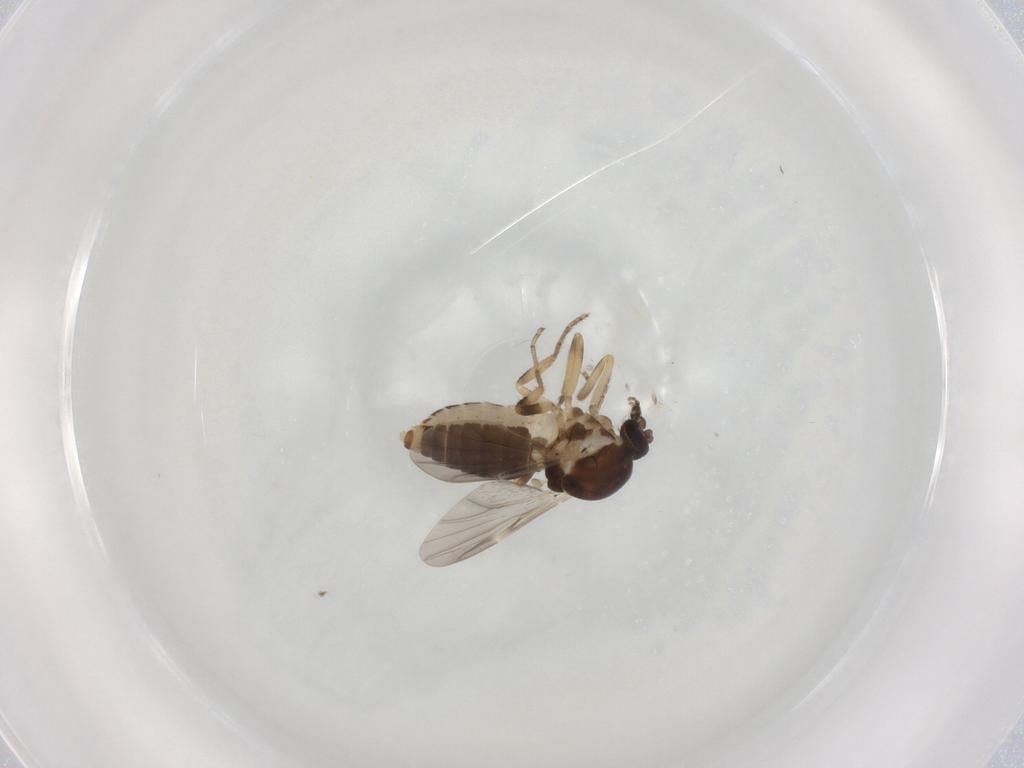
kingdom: Animalia
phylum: Arthropoda
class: Insecta
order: Diptera
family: Ceratopogonidae
